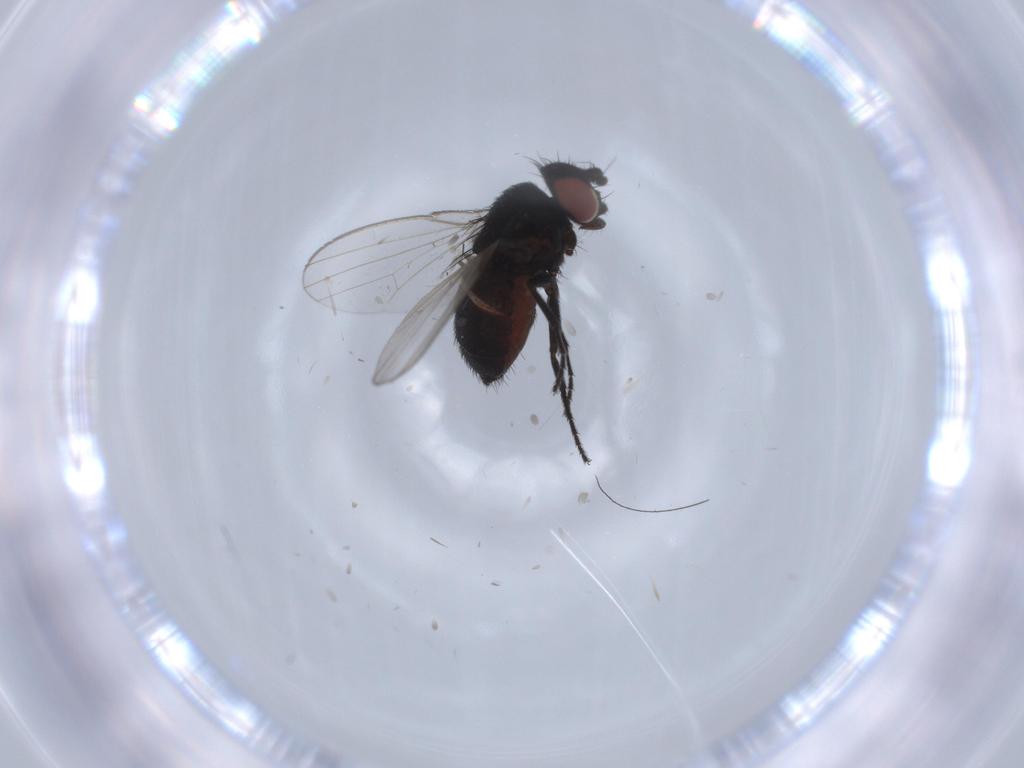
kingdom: Animalia
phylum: Arthropoda
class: Insecta
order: Diptera
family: Milichiidae
